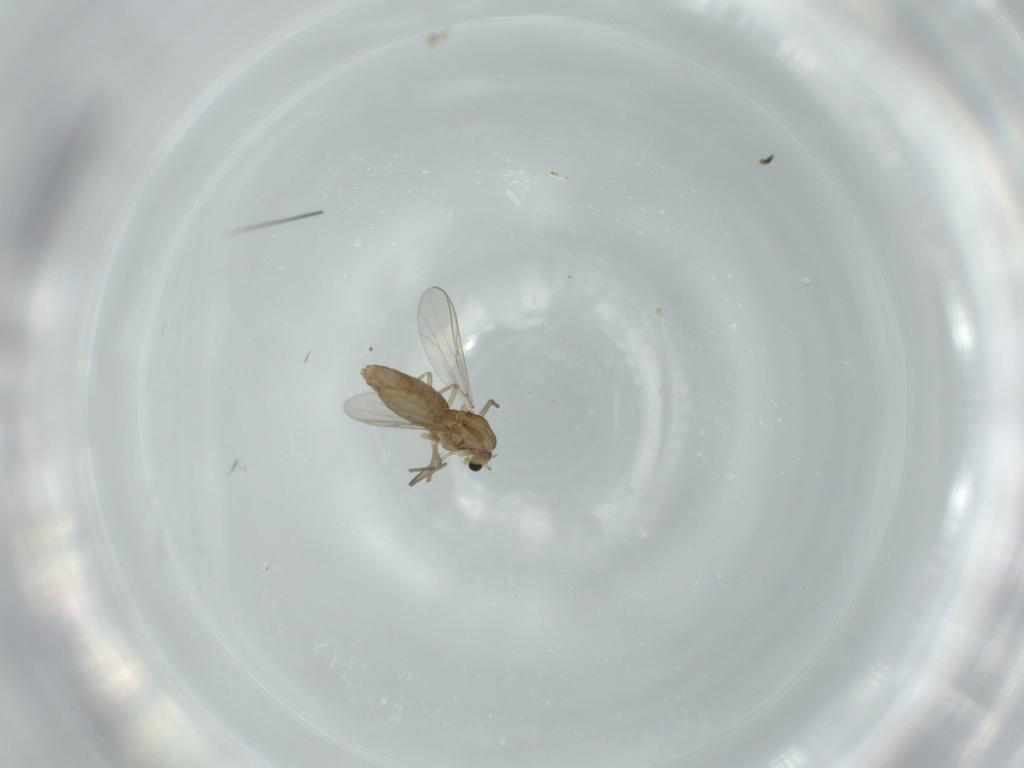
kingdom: Animalia
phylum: Arthropoda
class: Insecta
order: Diptera
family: Psychodidae
